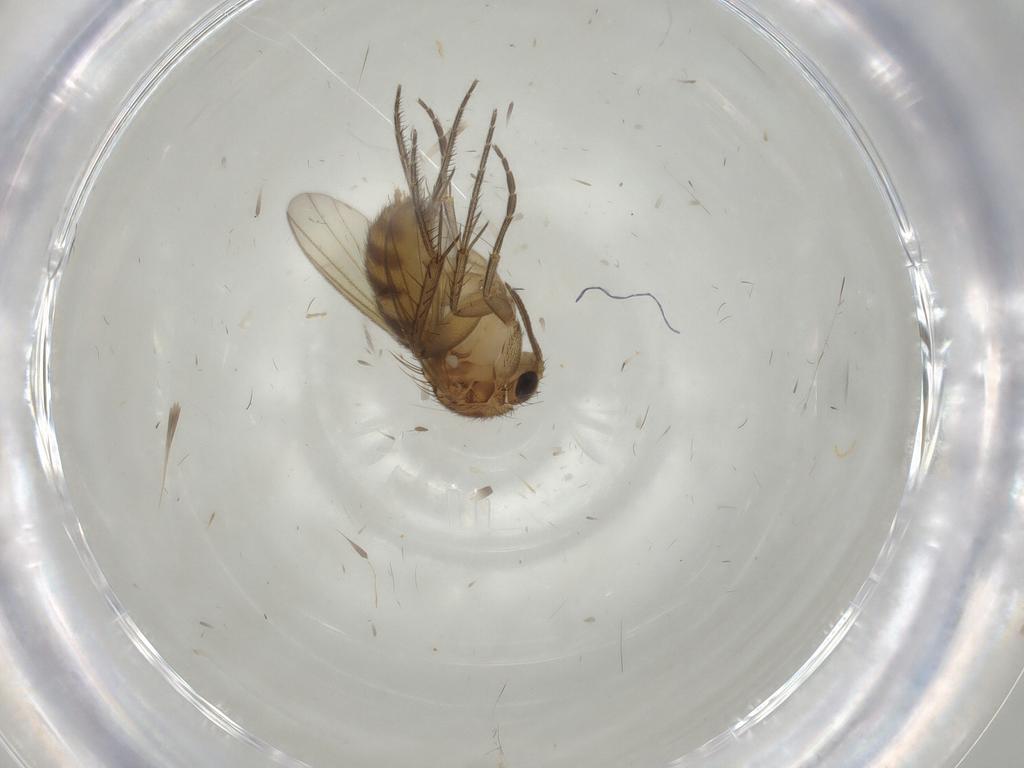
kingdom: Animalia
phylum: Arthropoda
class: Insecta
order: Diptera
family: Mycetophilidae
